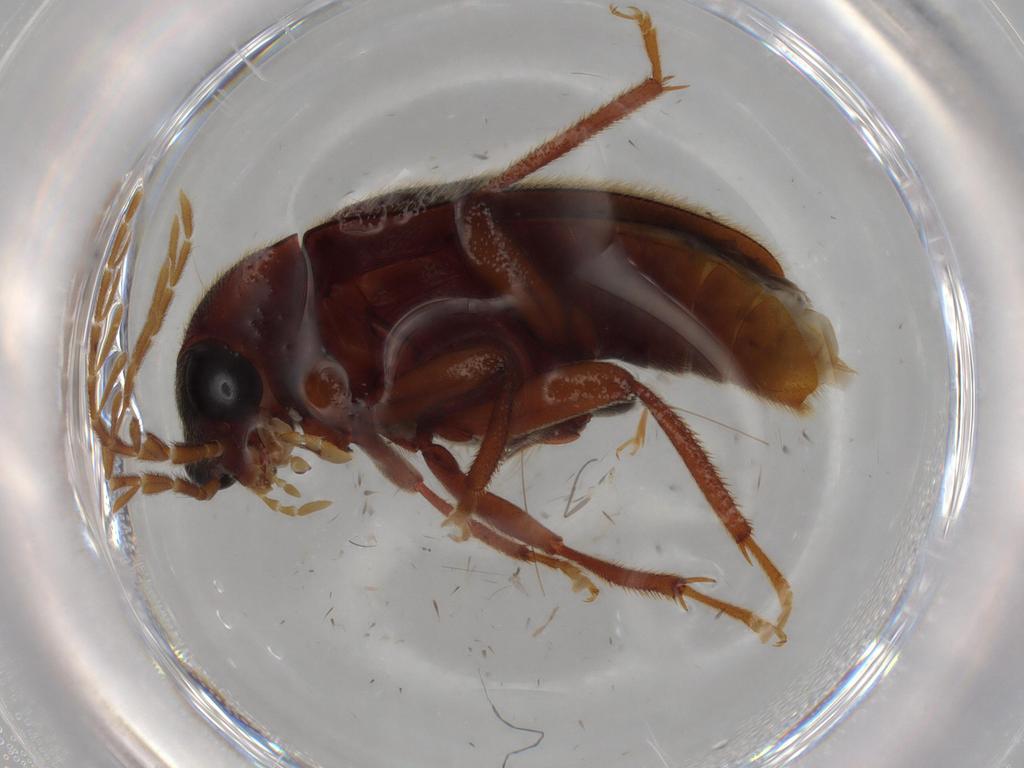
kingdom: Animalia
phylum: Arthropoda
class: Insecta
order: Coleoptera
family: Ptilodactylidae
